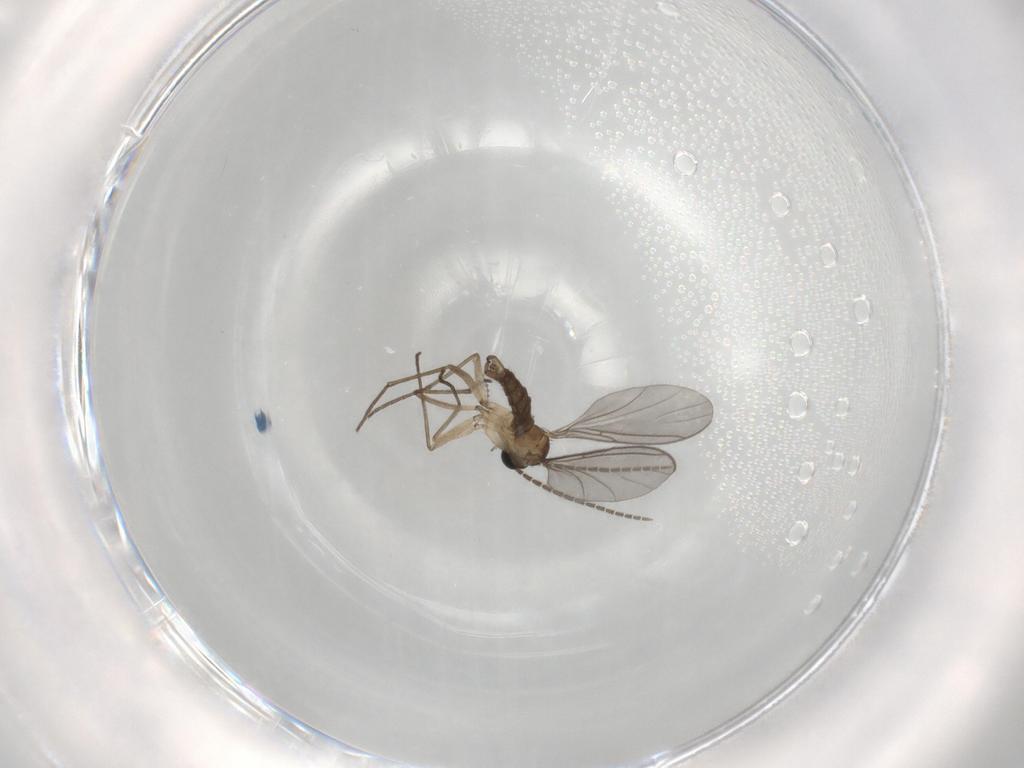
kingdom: Animalia
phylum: Arthropoda
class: Insecta
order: Diptera
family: Sciaridae
